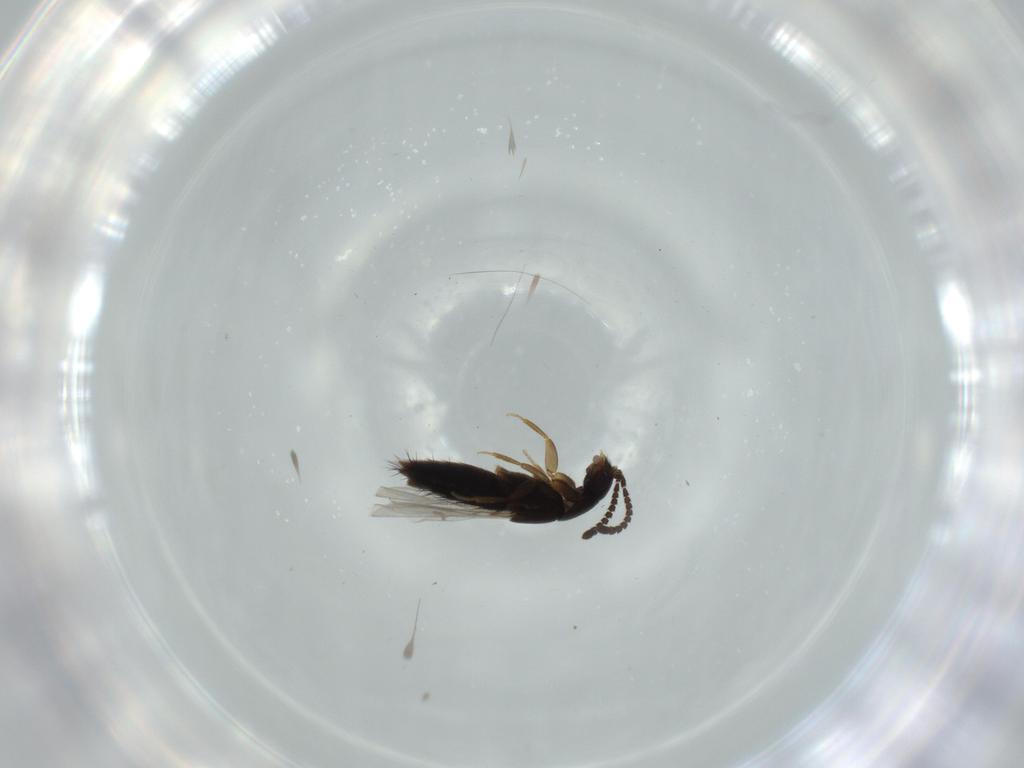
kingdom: Animalia
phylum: Arthropoda
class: Insecta
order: Coleoptera
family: Staphylinidae
